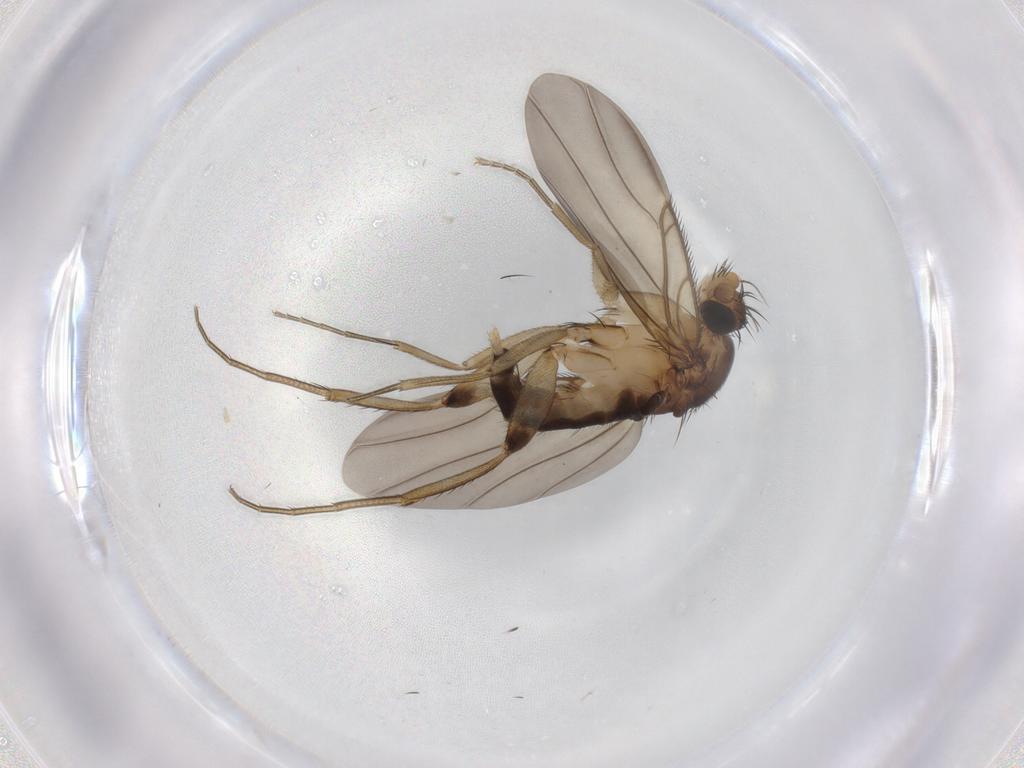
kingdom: Animalia
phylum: Arthropoda
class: Insecta
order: Diptera
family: Phoridae
